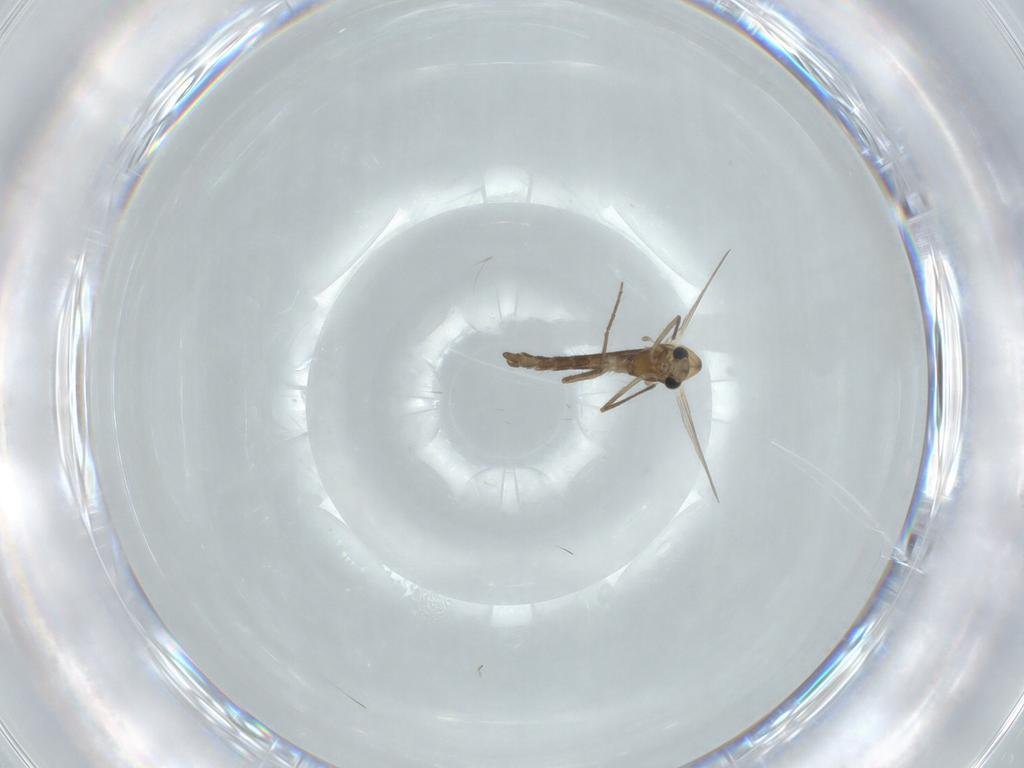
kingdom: Animalia
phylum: Arthropoda
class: Insecta
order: Diptera
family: Chironomidae
